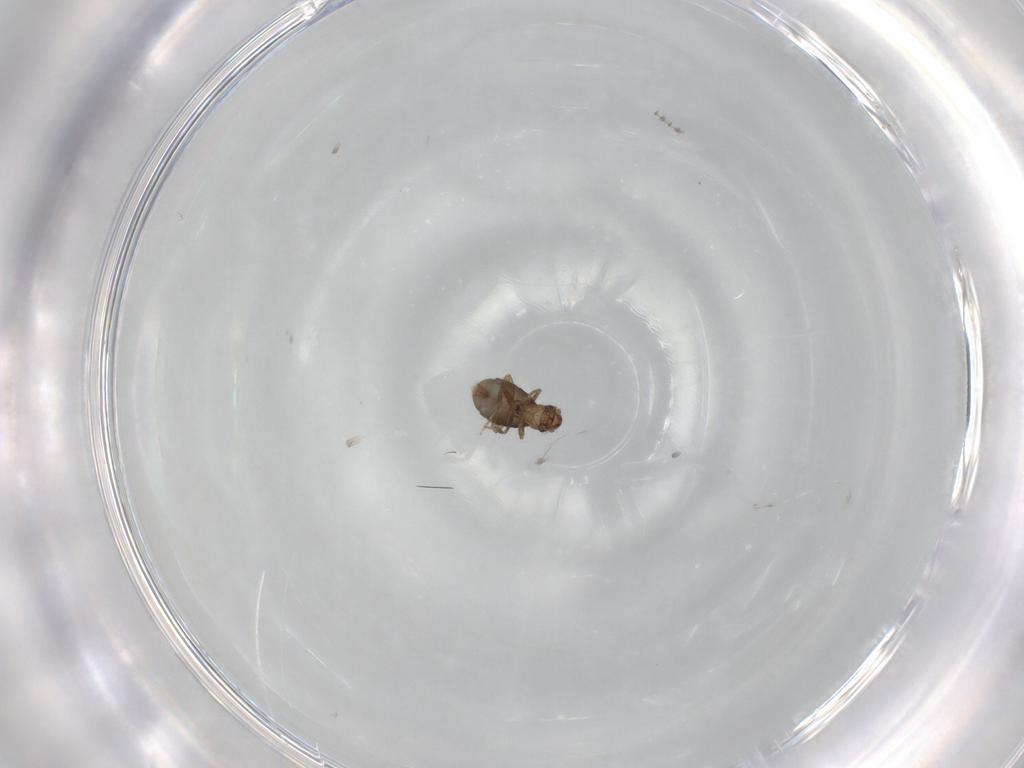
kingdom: Animalia
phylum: Arthropoda
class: Insecta
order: Diptera
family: Cecidomyiidae
